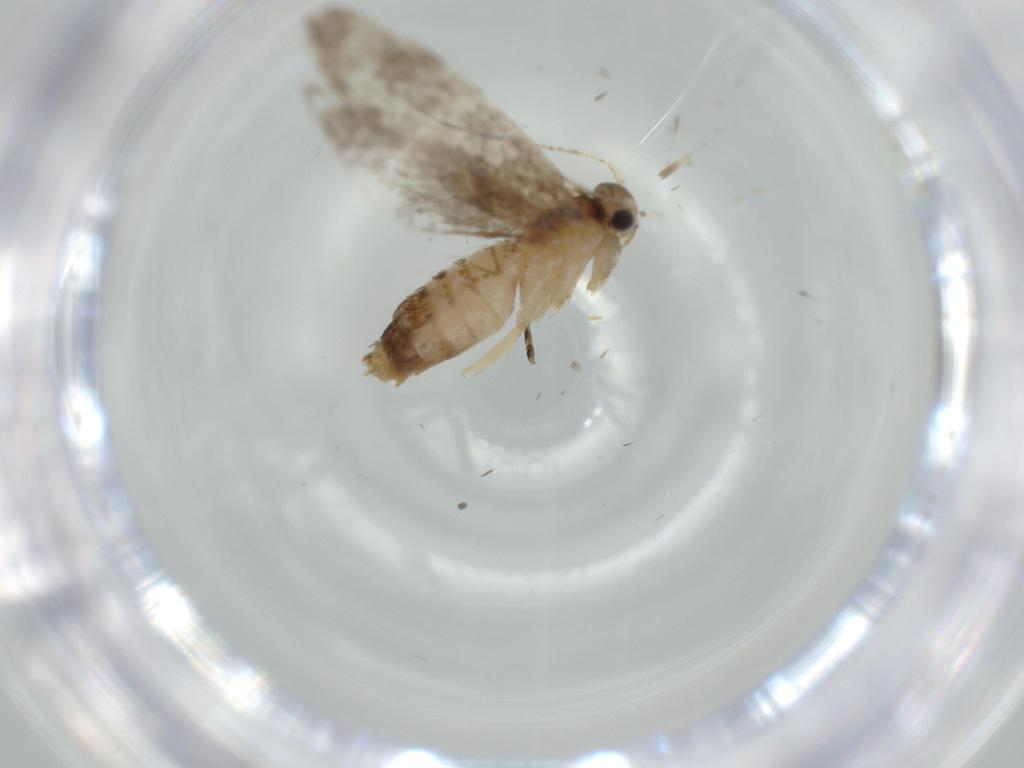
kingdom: Animalia
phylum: Arthropoda
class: Insecta
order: Lepidoptera
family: Tineidae
